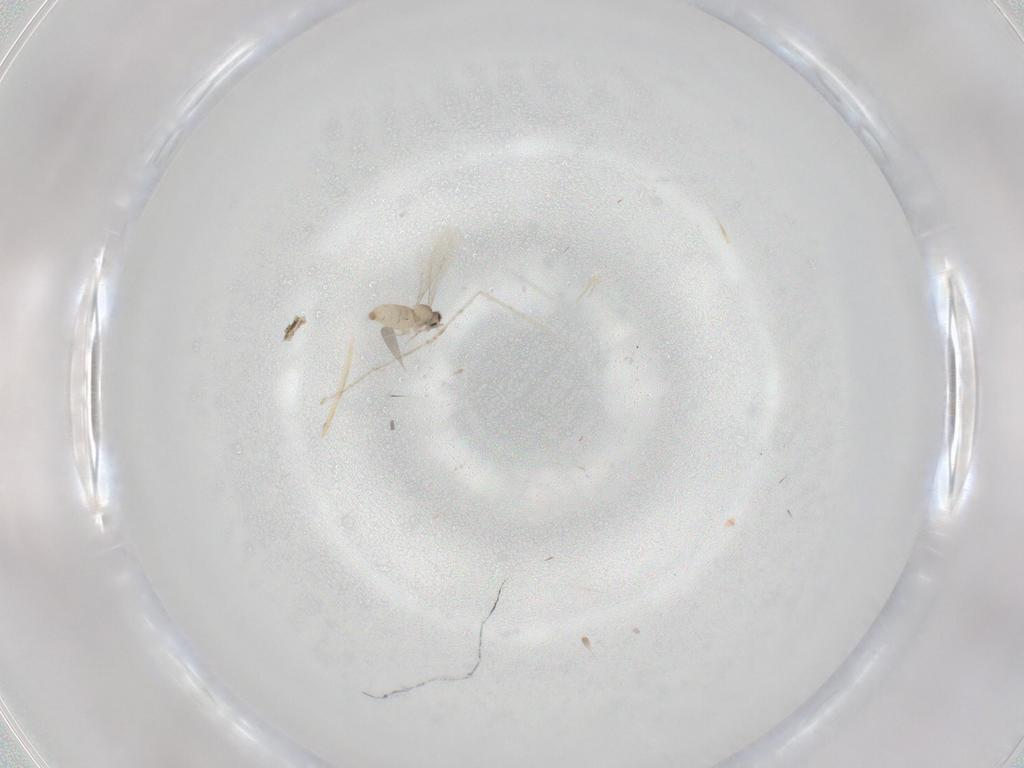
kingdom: Animalia
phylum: Arthropoda
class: Insecta
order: Diptera
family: Cecidomyiidae
